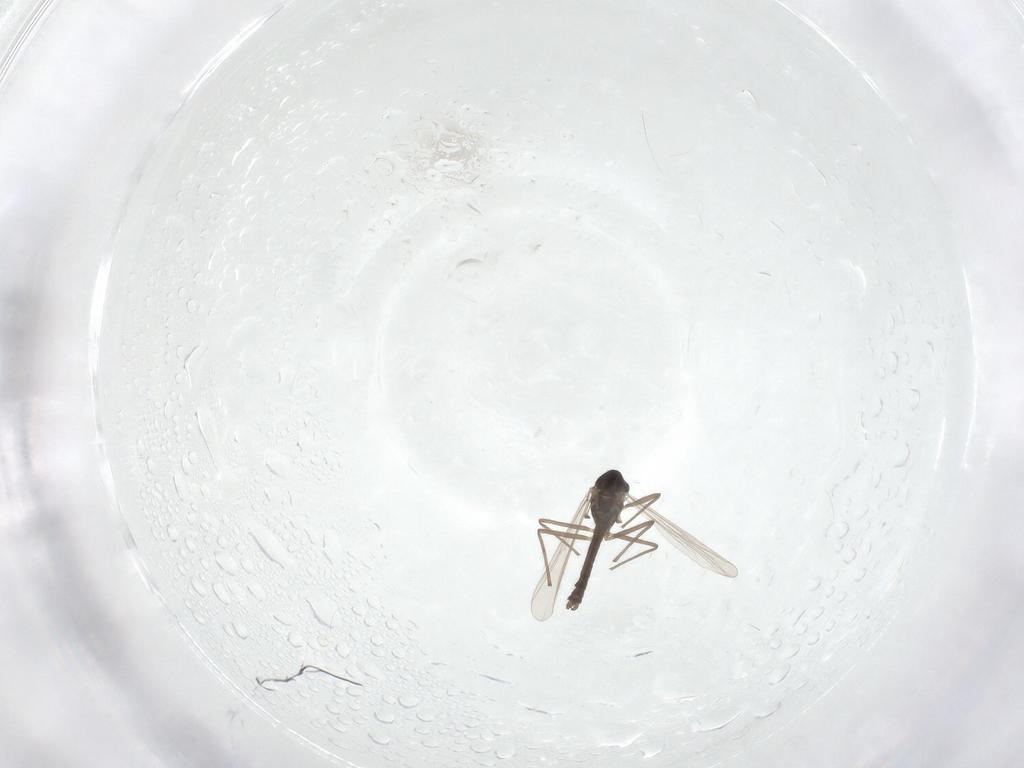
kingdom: Animalia
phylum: Arthropoda
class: Insecta
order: Diptera
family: Chironomidae
